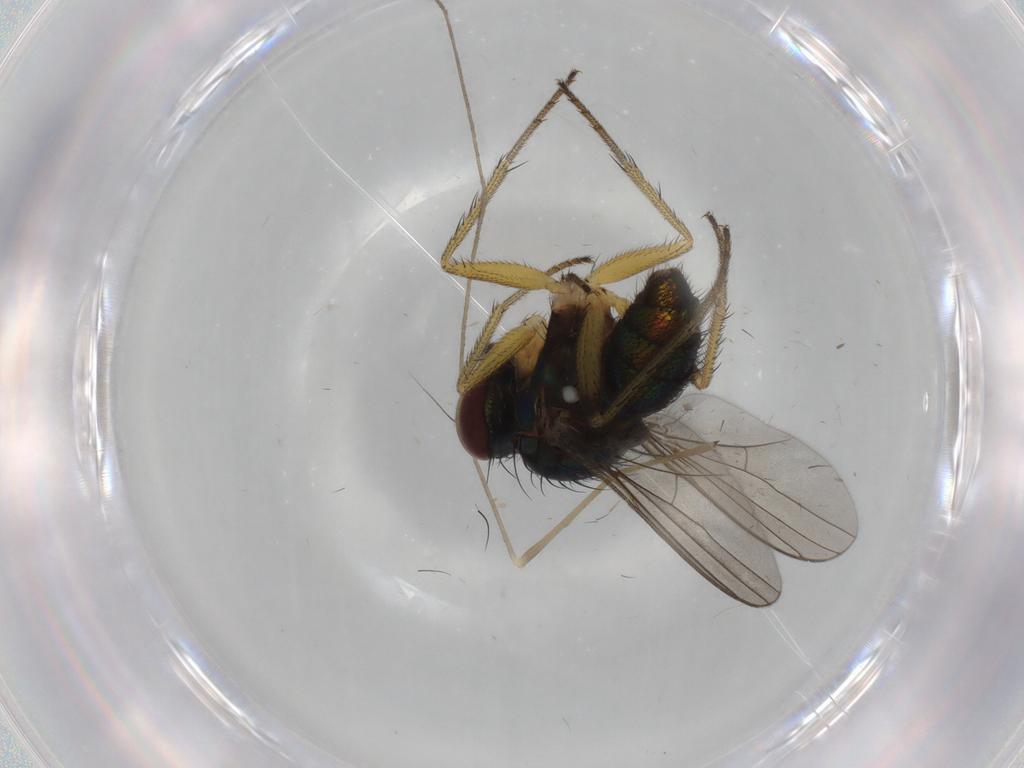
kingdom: Animalia
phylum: Arthropoda
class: Insecta
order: Diptera
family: Dolichopodidae
